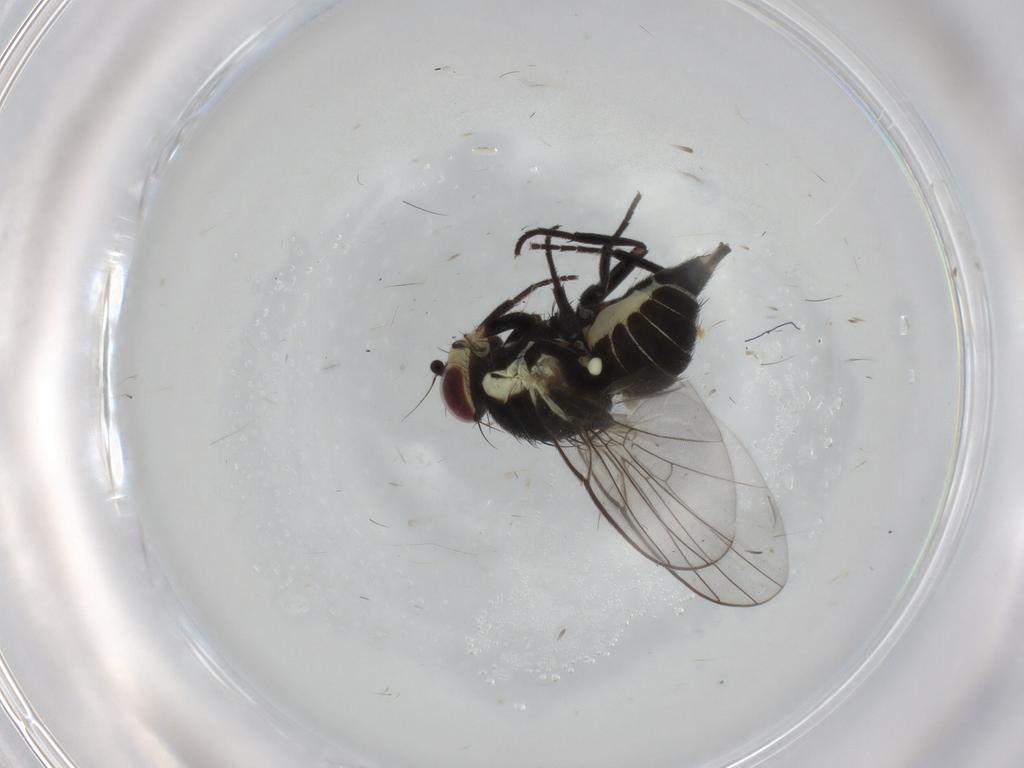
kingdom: Animalia
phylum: Arthropoda
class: Insecta
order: Diptera
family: Agromyzidae
